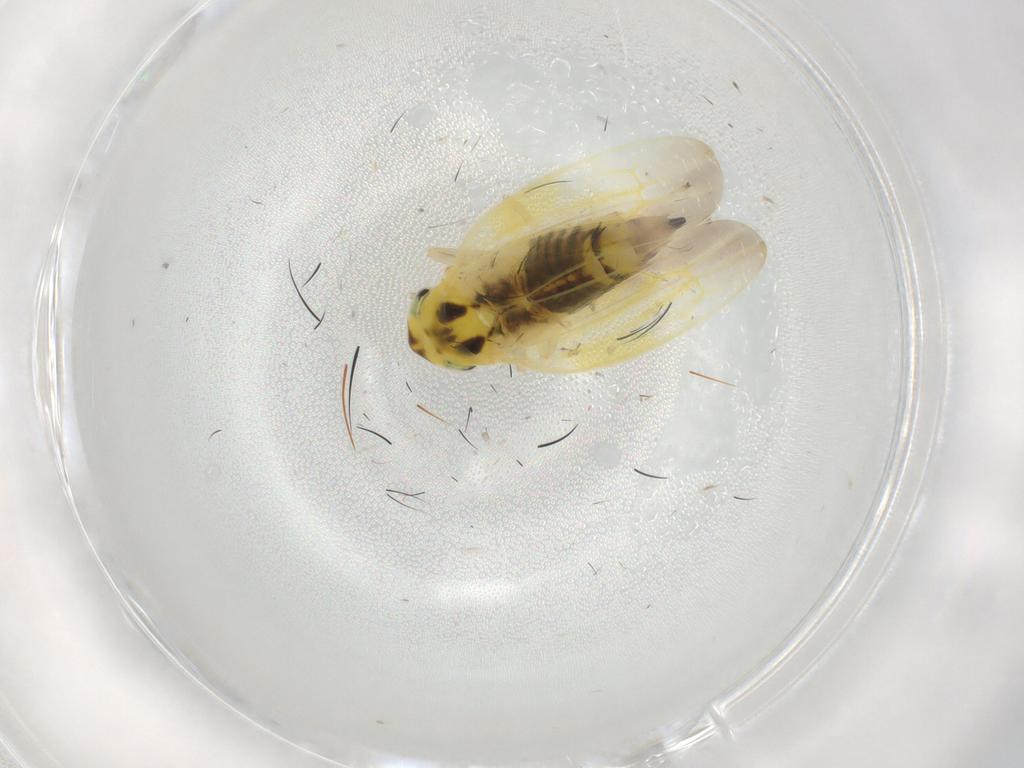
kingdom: Animalia
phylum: Arthropoda
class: Insecta
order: Hemiptera
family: Cicadellidae
